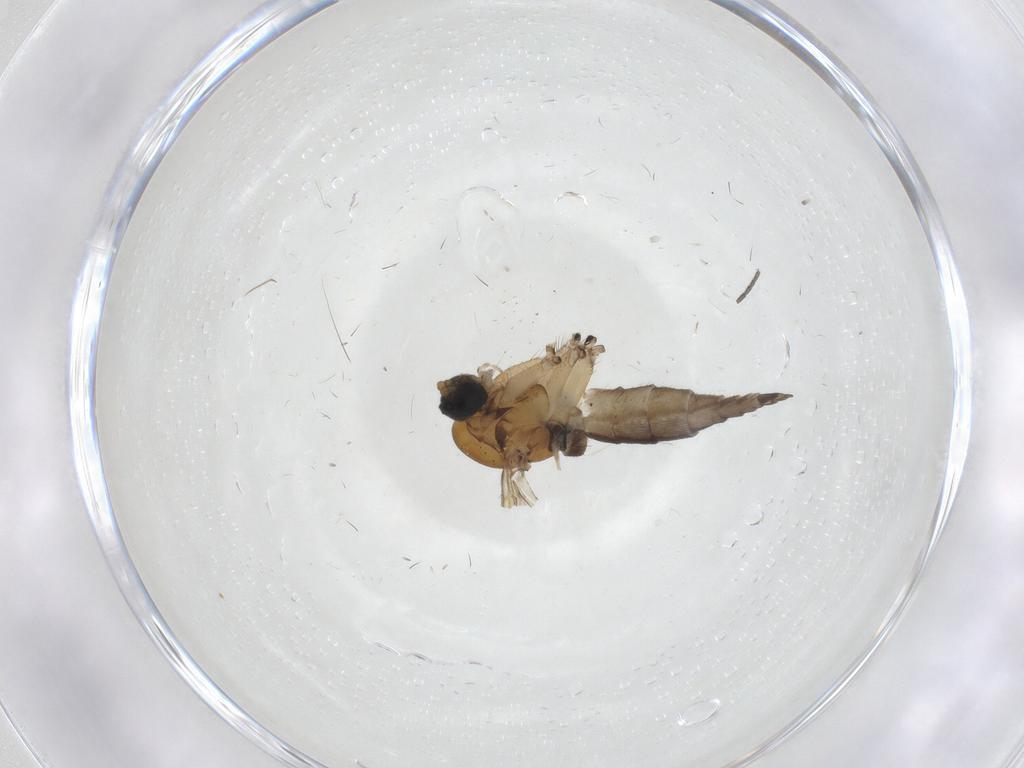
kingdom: Animalia
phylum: Arthropoda
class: Insecta
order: Diptera
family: Sciaridae
